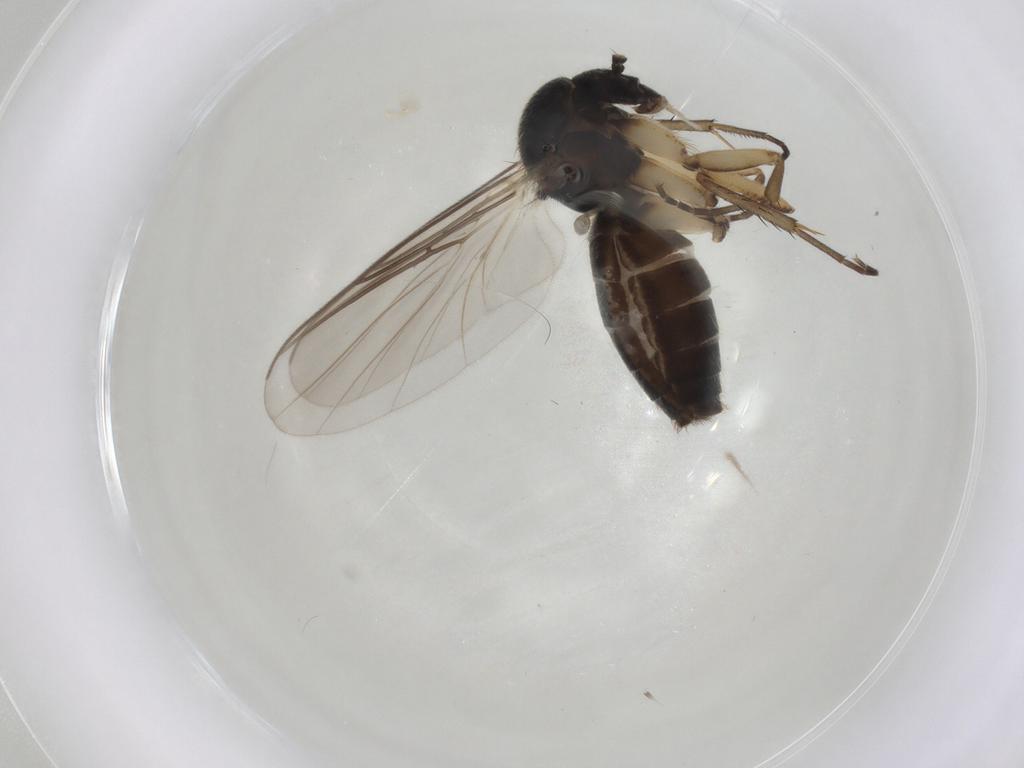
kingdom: Animalia
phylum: Arthropoda
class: Insecta
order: Diptera
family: Mycetophilidae
